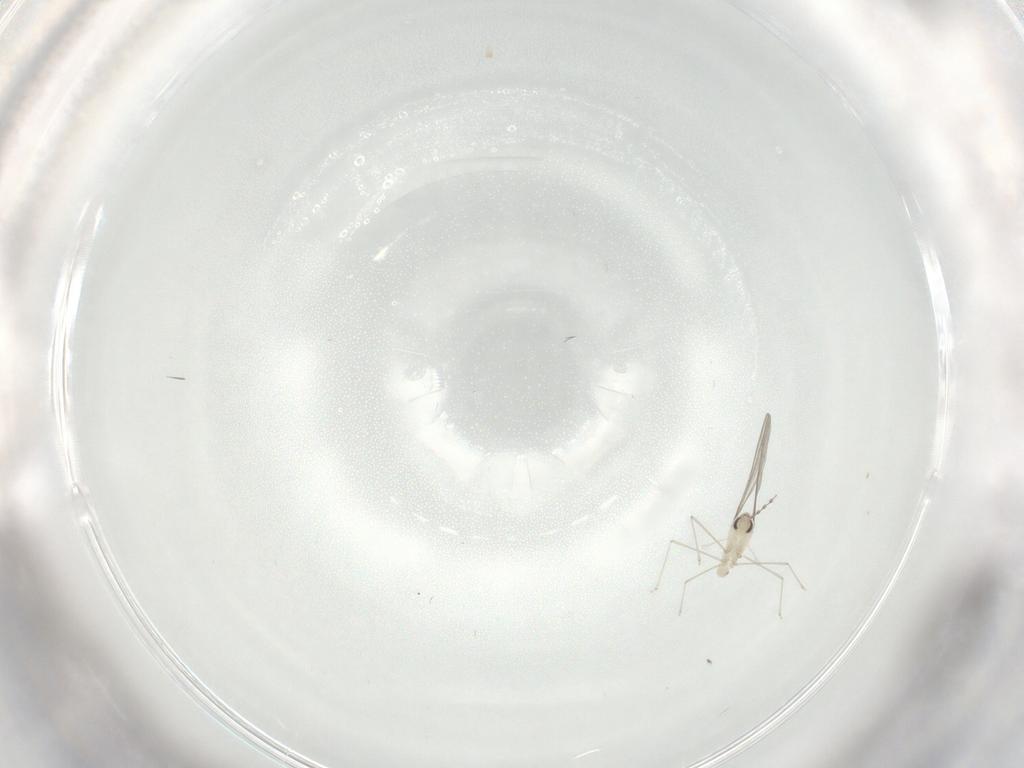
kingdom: Animalia
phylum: Arthropoda
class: Insecta
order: Diptera
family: Cecidomyiidae
